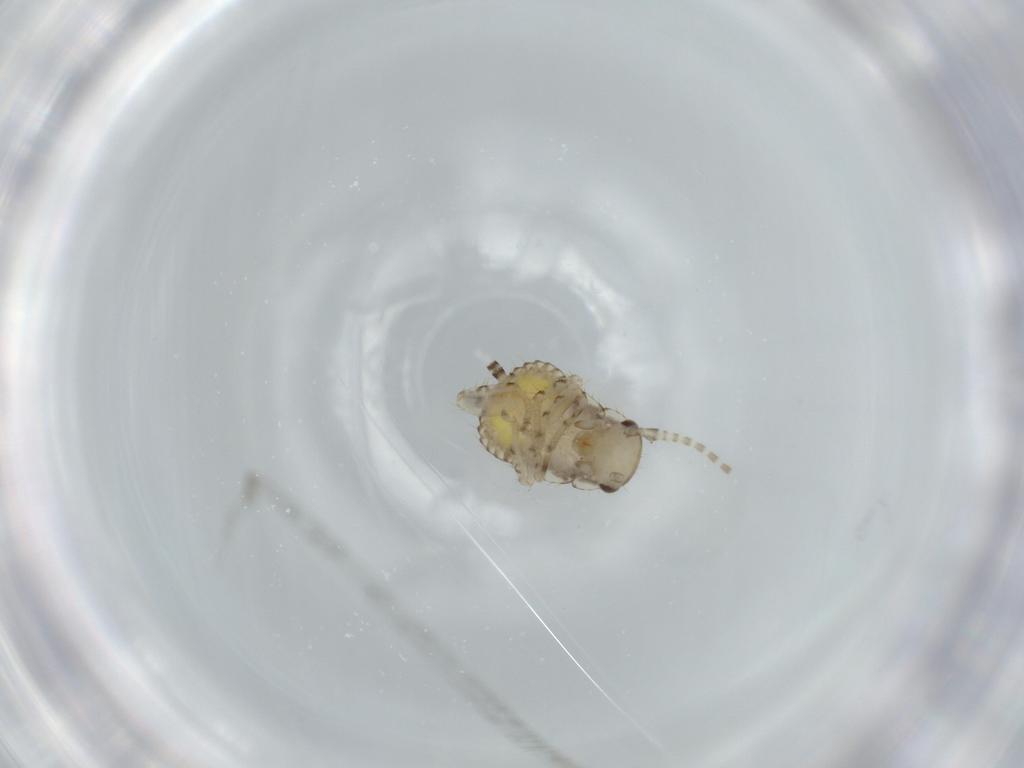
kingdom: Animalia
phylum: Arthropoda
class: Insecta
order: Blattodea
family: Ectobiidae
